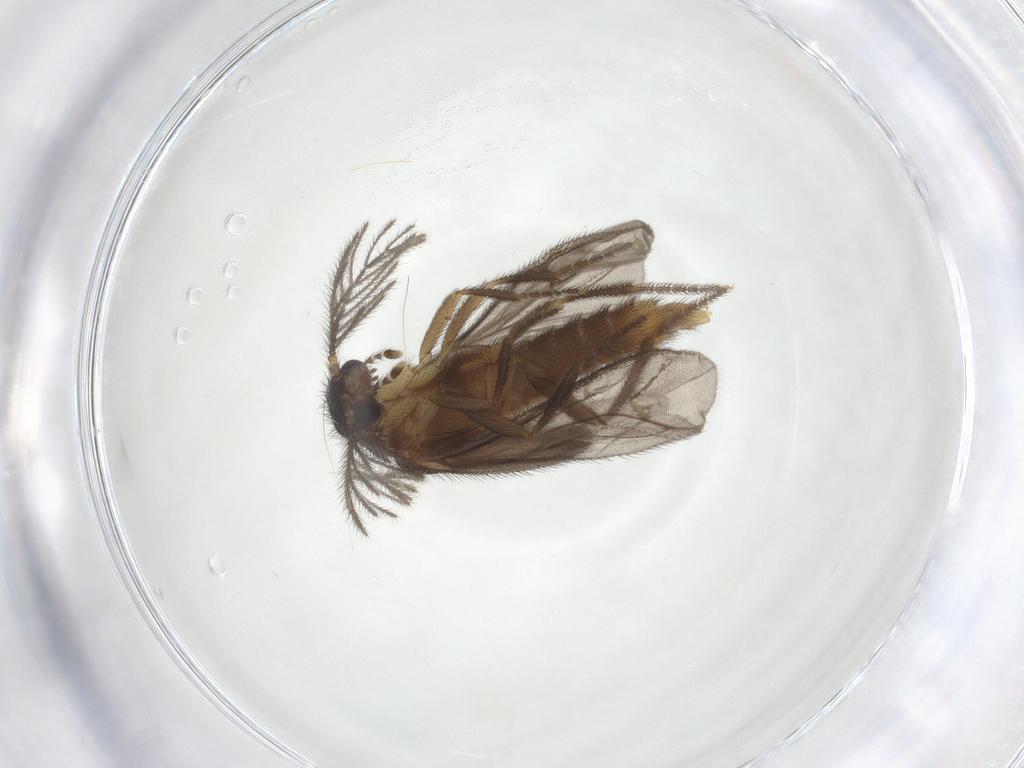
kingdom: Animalia
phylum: Arthropoda
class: Insecta
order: Coleoptera
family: Phengodidae
